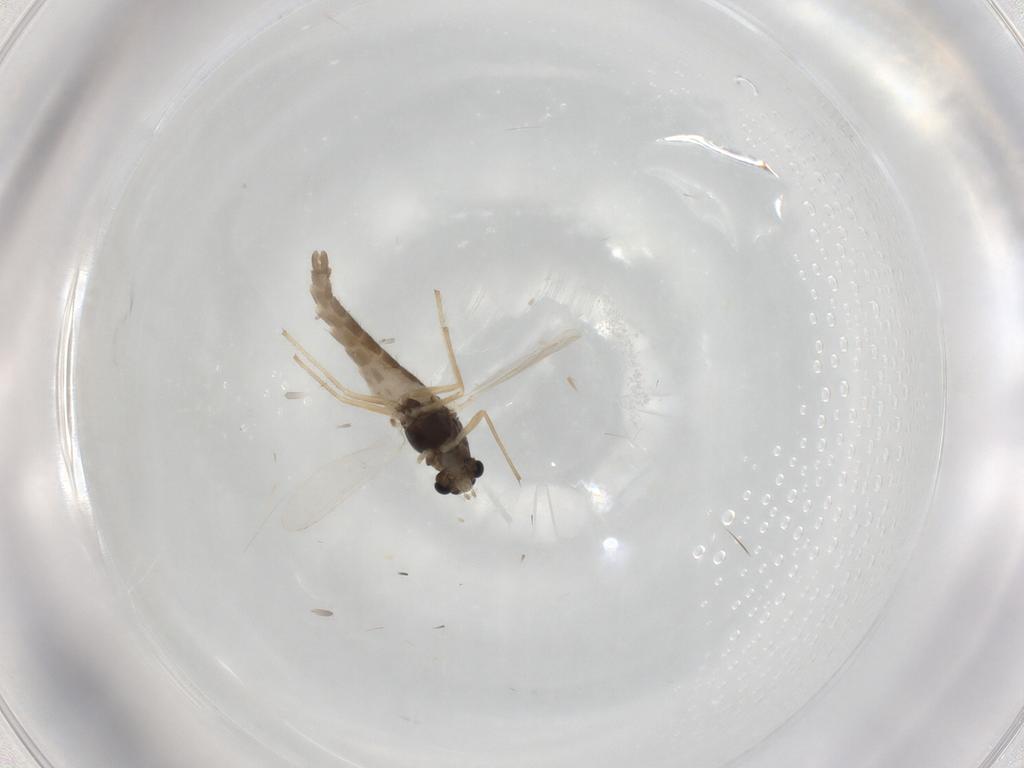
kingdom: Animalia
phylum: Arthropoda
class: Insecta
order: Diptera
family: Chironomidae
